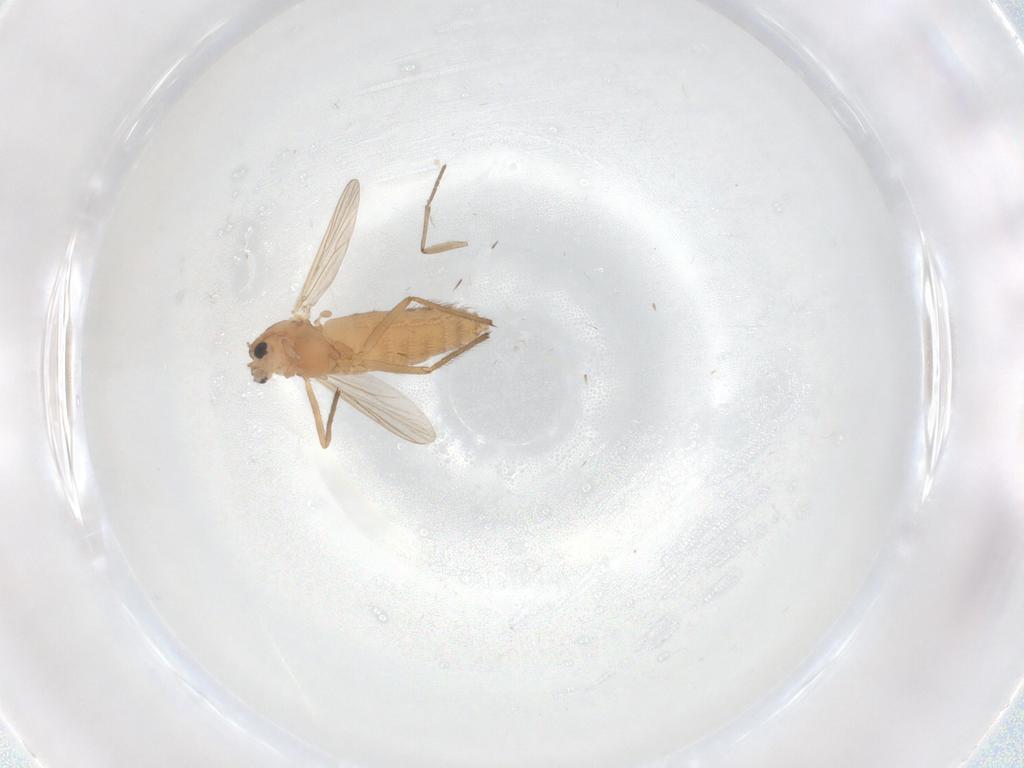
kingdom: Animalia
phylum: Arthropoda
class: Insecta
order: Diptera
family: Chironomidae
